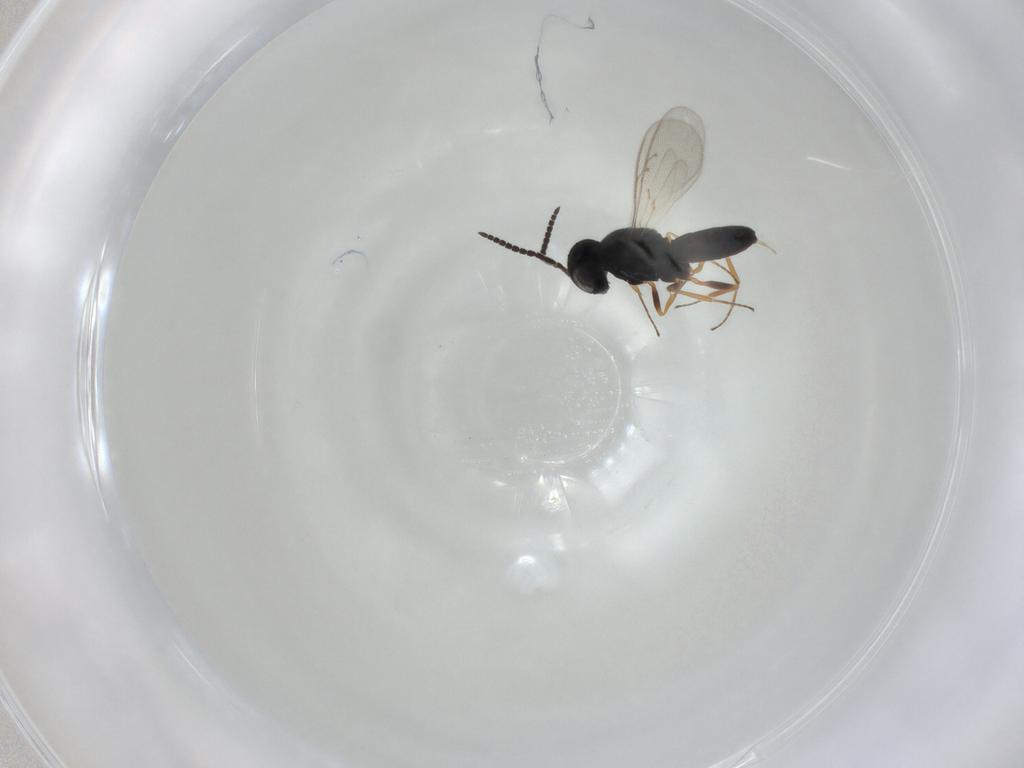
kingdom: Animalia
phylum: Arthropoda
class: Insecta
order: Hymenoptera
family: Scelionidae
